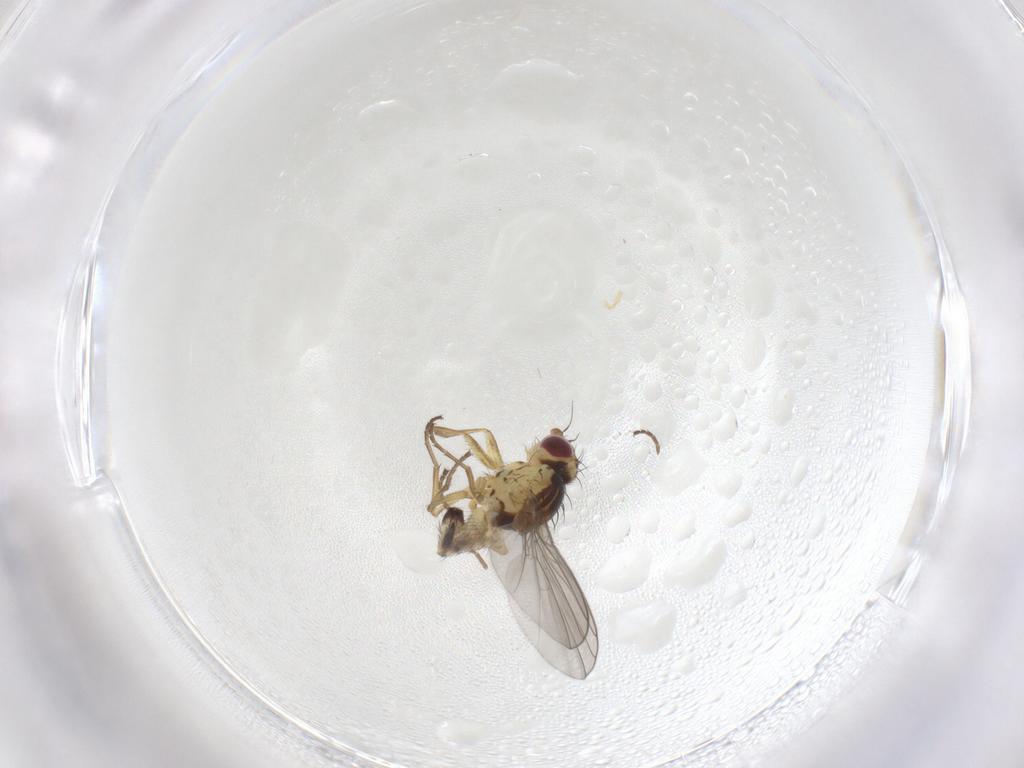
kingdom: Animalia
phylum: Arthropoda
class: Insecta
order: Diptera
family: Agromyzidae
